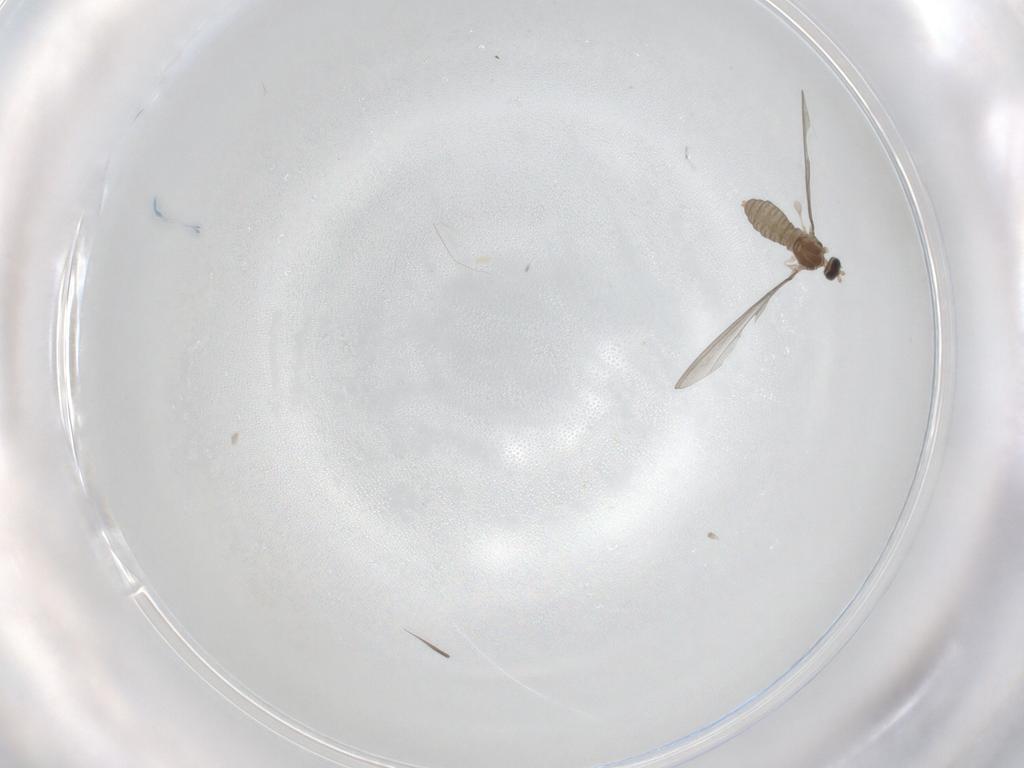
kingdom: Animalia
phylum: Arthropoda
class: Insecta
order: Diptera
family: Cecidomyiidae
